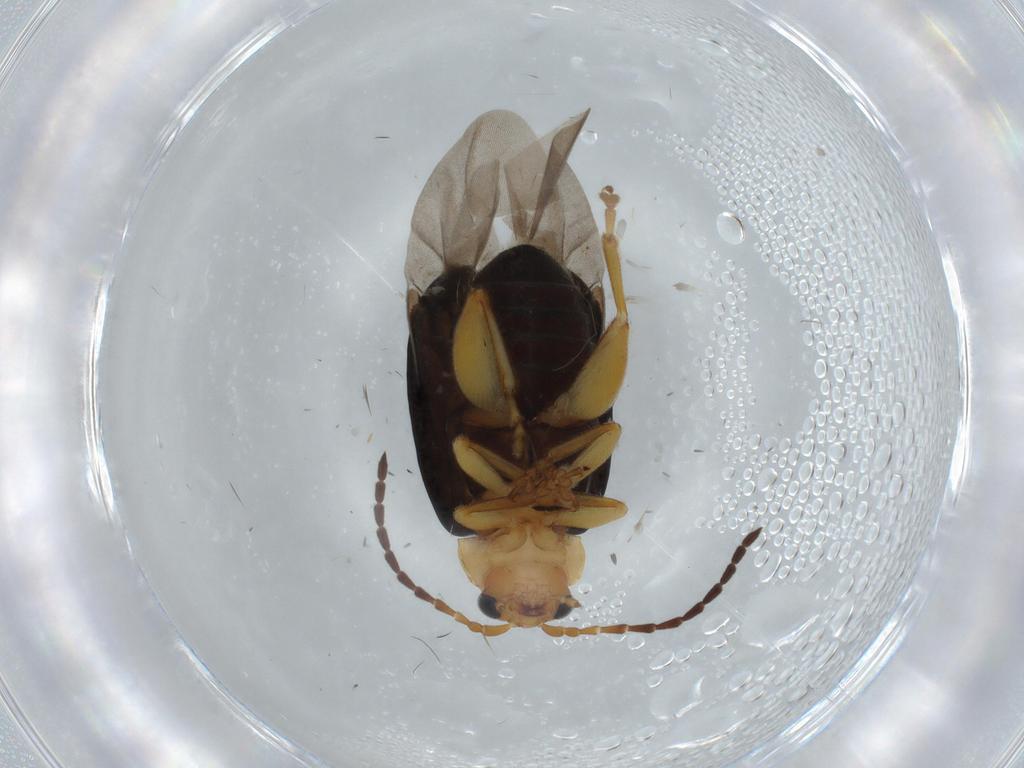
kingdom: Animalia
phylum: Arthropoda
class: Insecta
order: Coleoptera
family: Chrysomelidae
